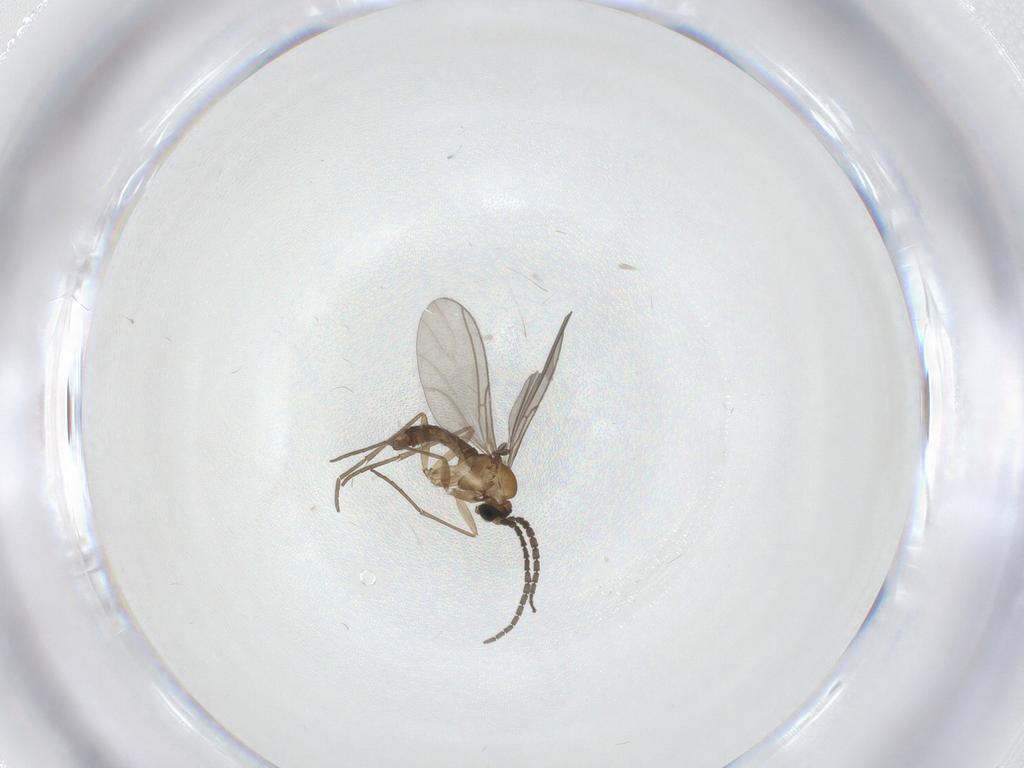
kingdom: Animalia
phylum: Arthropoda
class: Insecta
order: Diptera
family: Sciaridae
